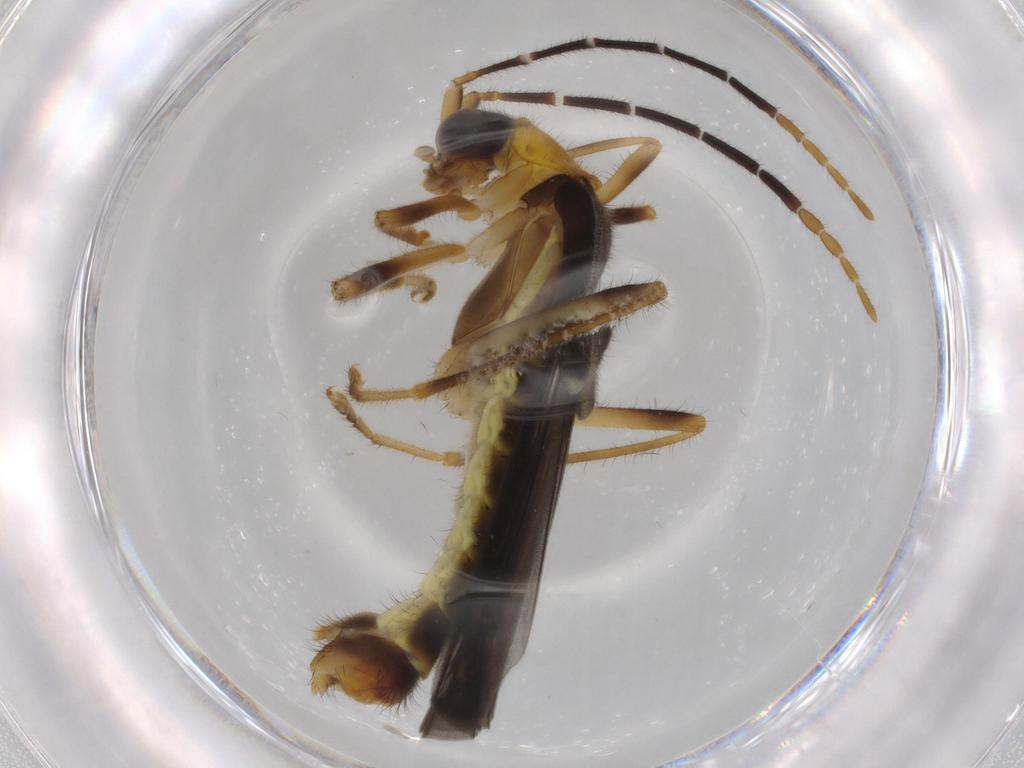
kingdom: Animalia
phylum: Arthropoda
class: Insecta
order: Coleoptera
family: Cantharidae
